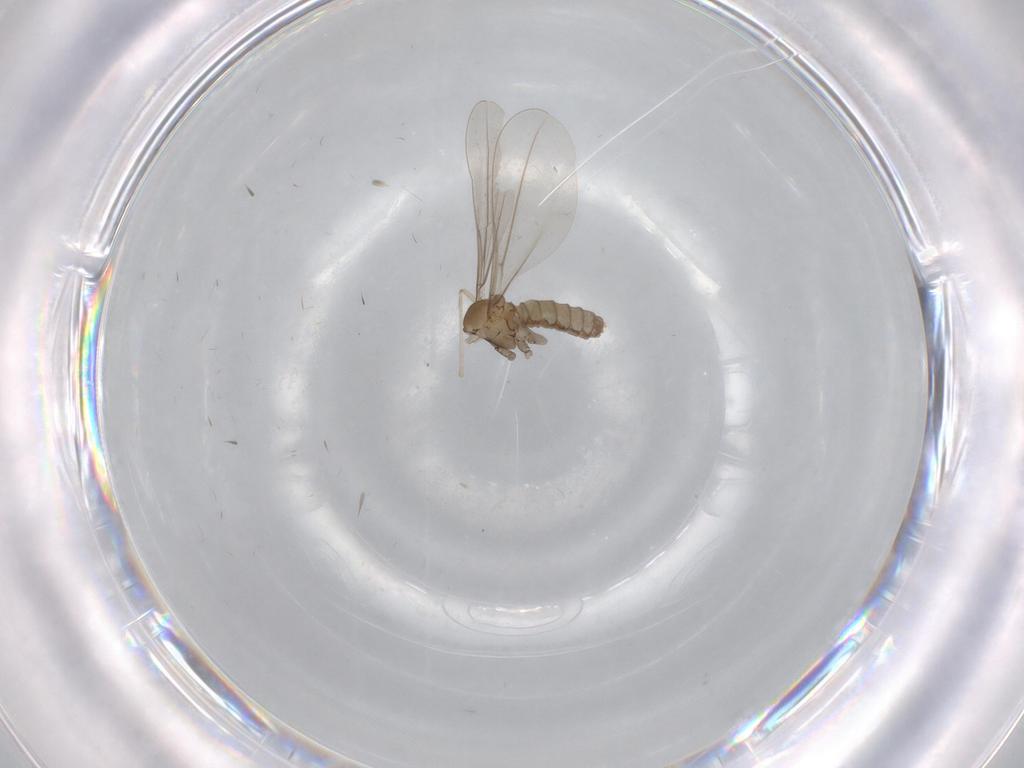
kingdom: Animalia
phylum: Arthropoda
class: Insecta
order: Diptera
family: Cecidomyiidae
